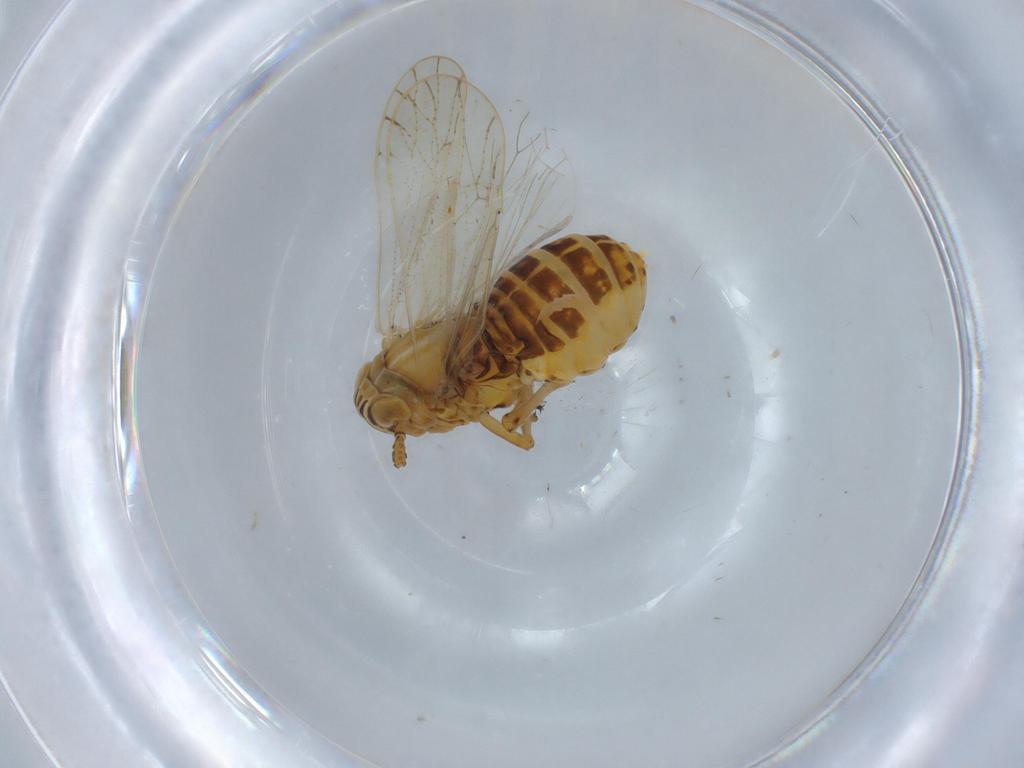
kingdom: Animalia
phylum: Arthropoda
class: Insecta
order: Hemiptera
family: Delphacidae
